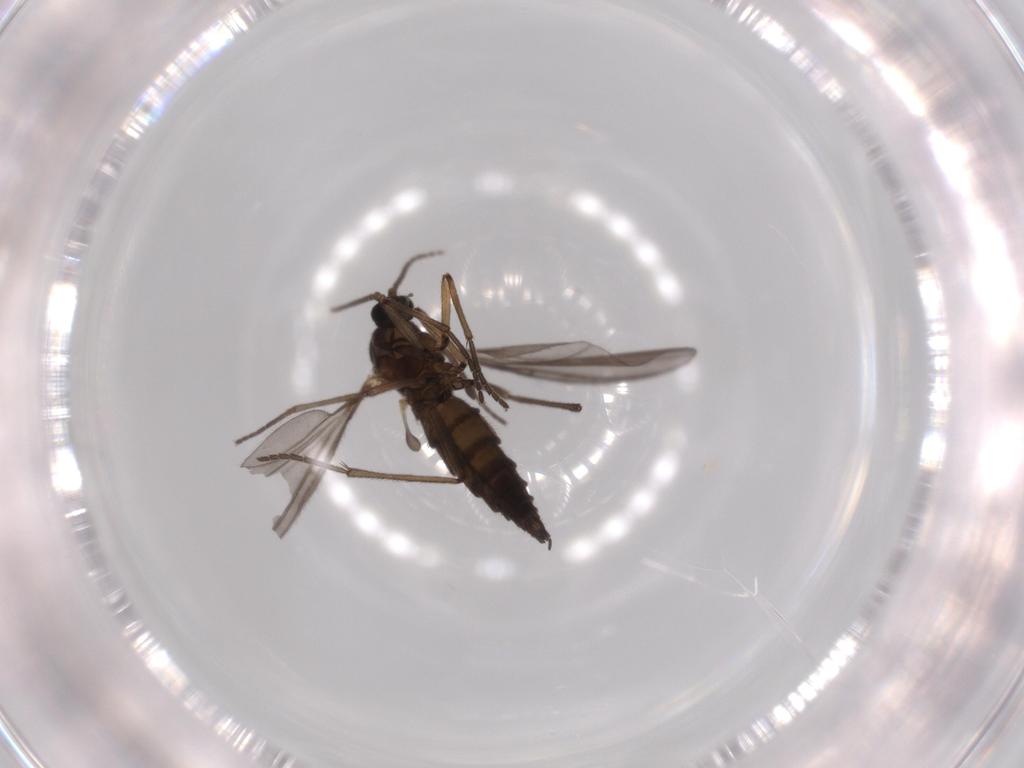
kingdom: Animalia
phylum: Arthropoda
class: Insecta
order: Diptera
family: Sciaridae
